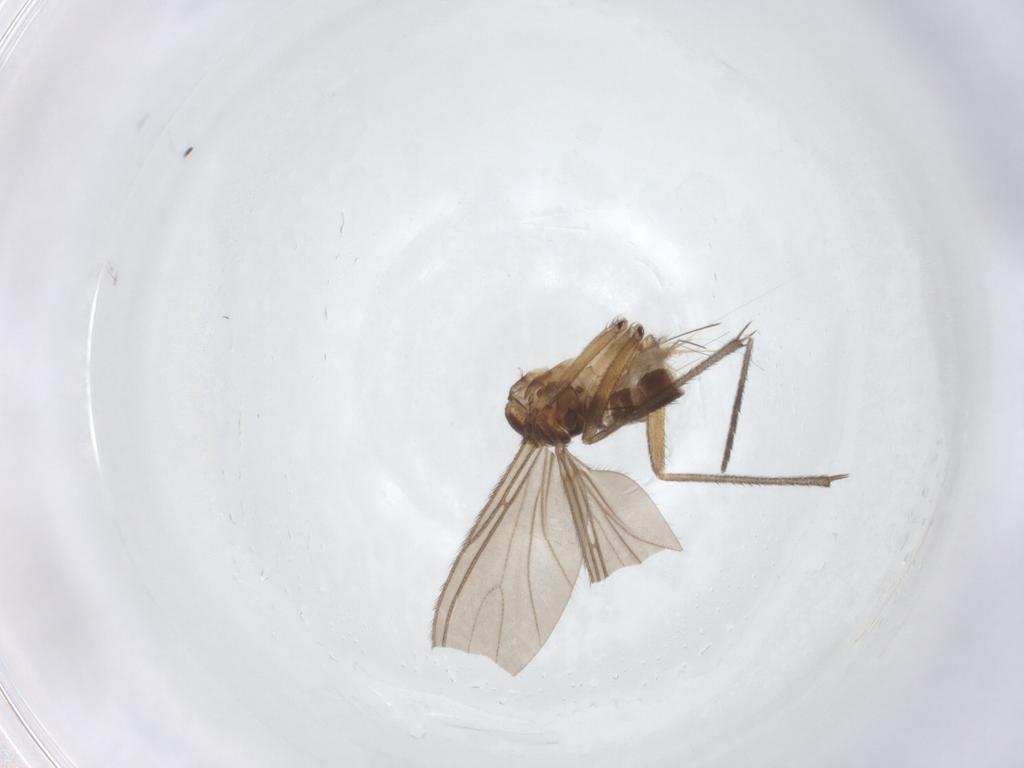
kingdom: Animalia
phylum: Arthropoda
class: Insecta
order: Diptera
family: Sciaridae
